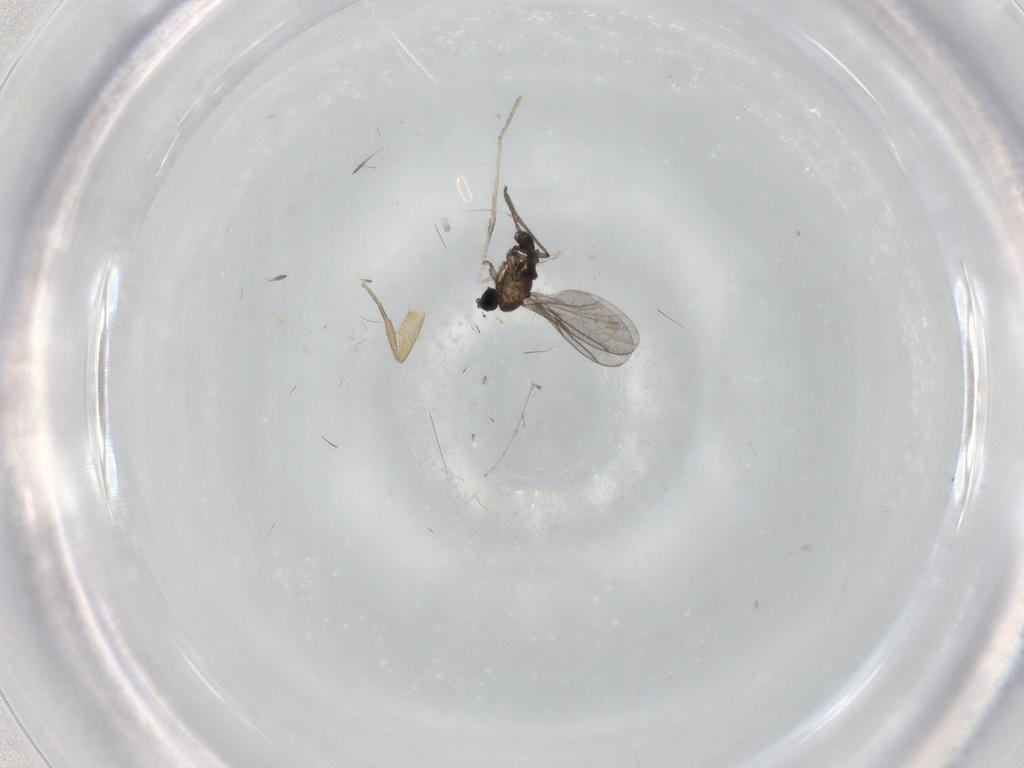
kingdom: Animalia
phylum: Arthropoda
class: Insecta
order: Diptera
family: Phoridae
